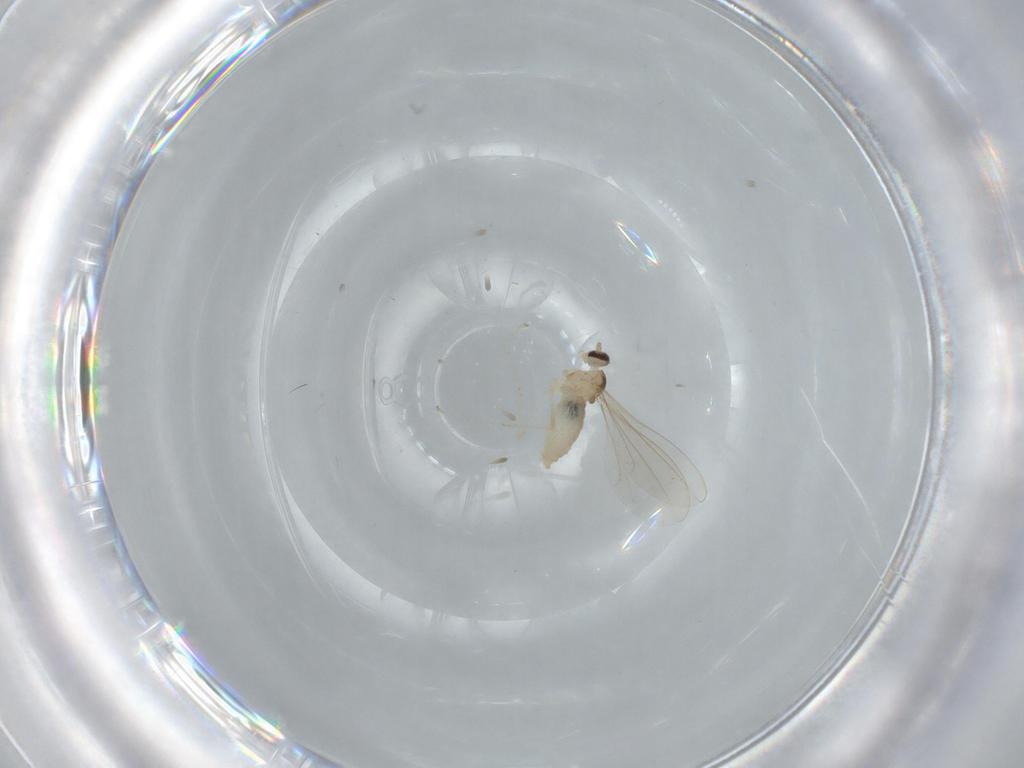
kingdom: Animalia
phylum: Arthropoda
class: Insecta
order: Diptera
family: Cecidomyiidae
